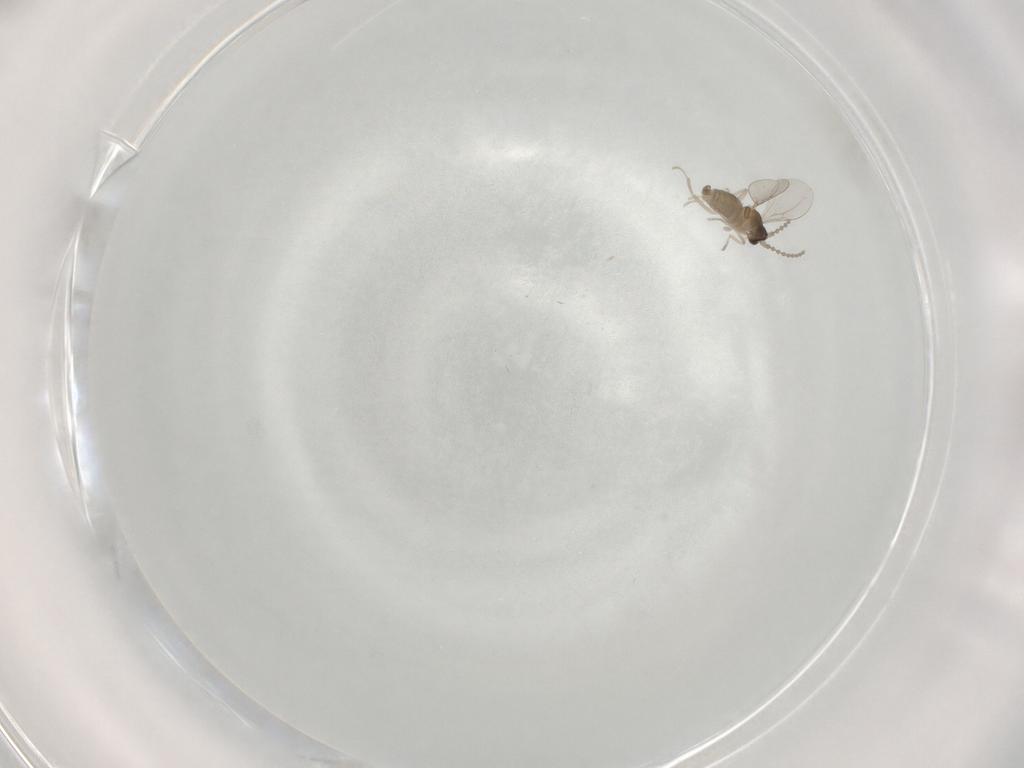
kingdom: Animalia
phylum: Arthropoda
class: Insecta
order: Diptera
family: Cecidomyiidae
